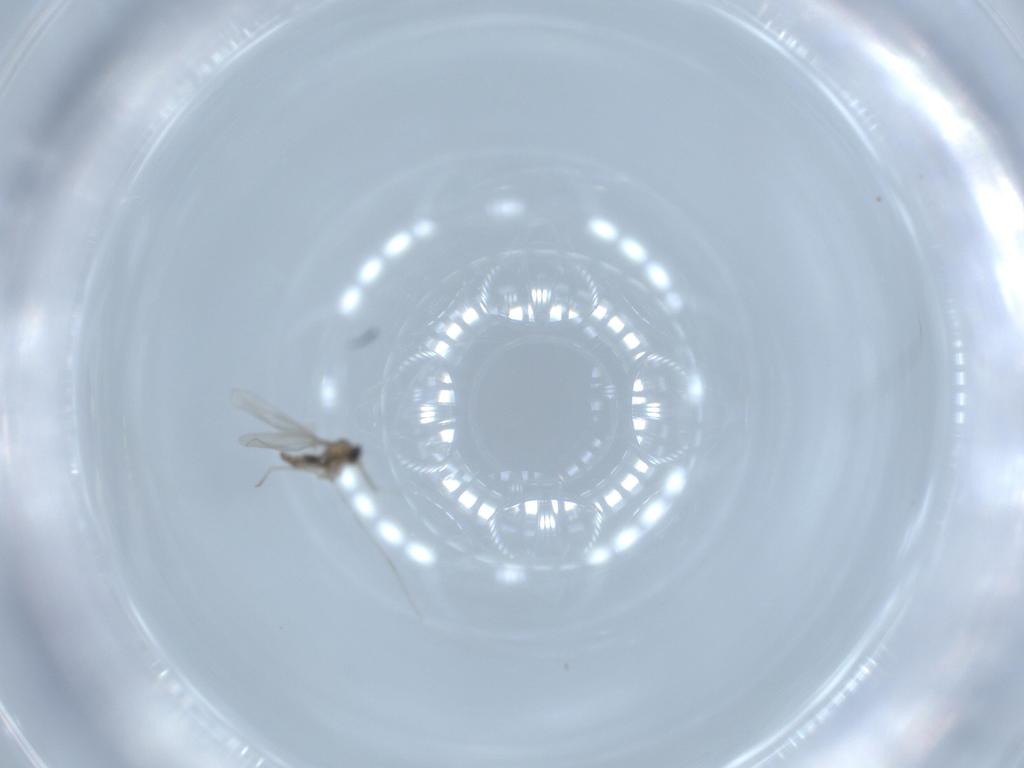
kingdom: Animalia
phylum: Arthropoda
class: Insecta
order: Diptera
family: Cecidomyiidae
